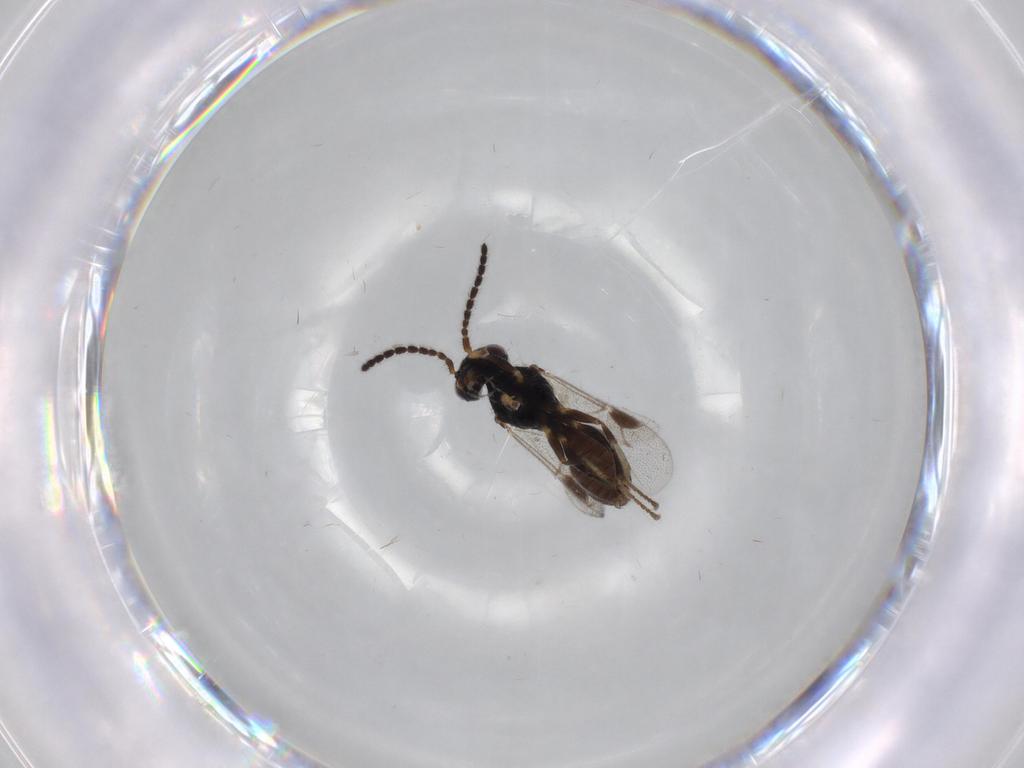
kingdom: Animalia
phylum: Arthropoda
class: Insecta
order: Hymenoptera
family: Dryinidae
